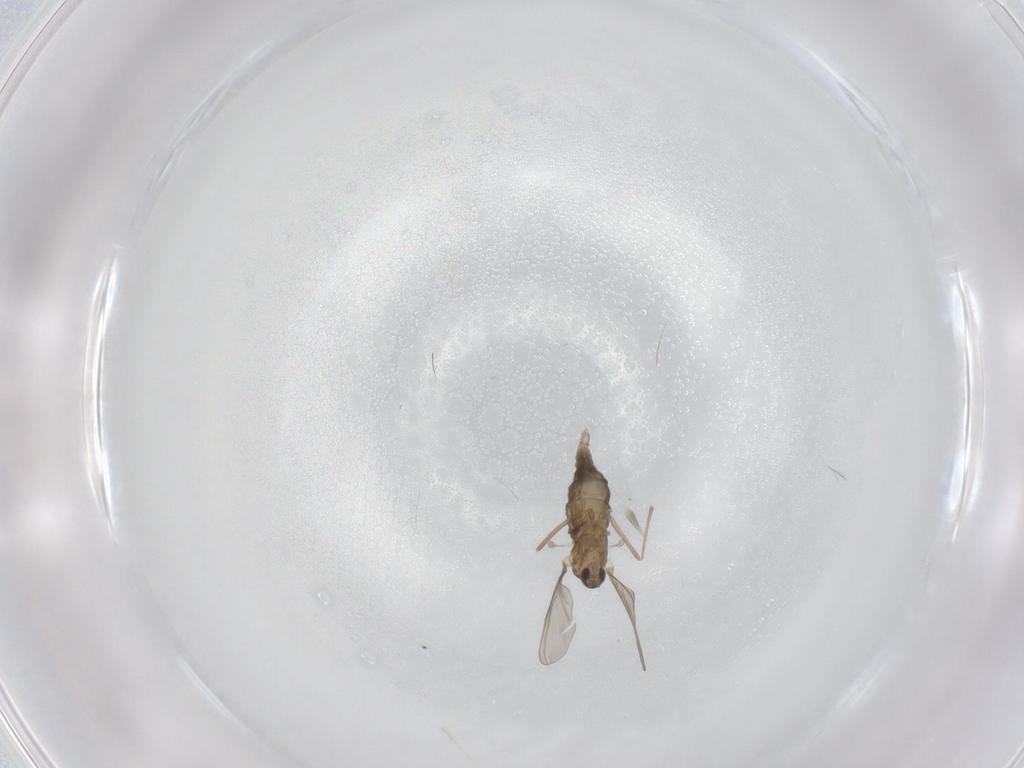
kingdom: Animalia
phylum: Arthropoda
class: Insecta
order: Diptera
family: Cecidomyiidae
